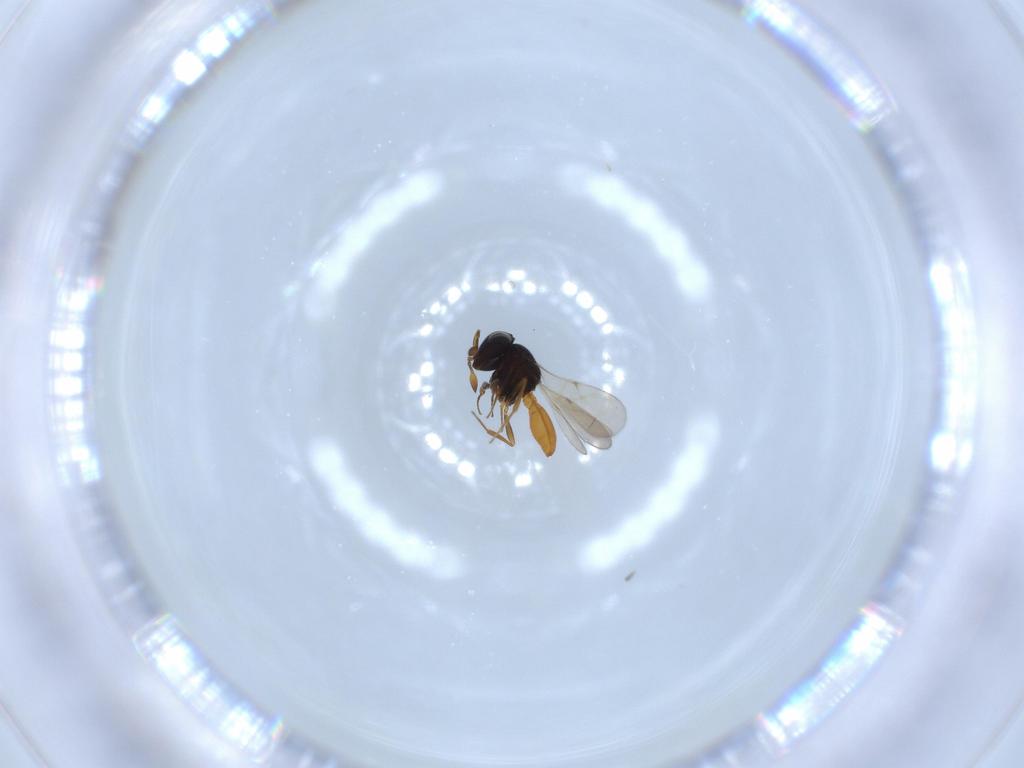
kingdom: Animalia
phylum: Arthropoda
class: Insecta
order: Hymenoptera
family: Scelionidae
